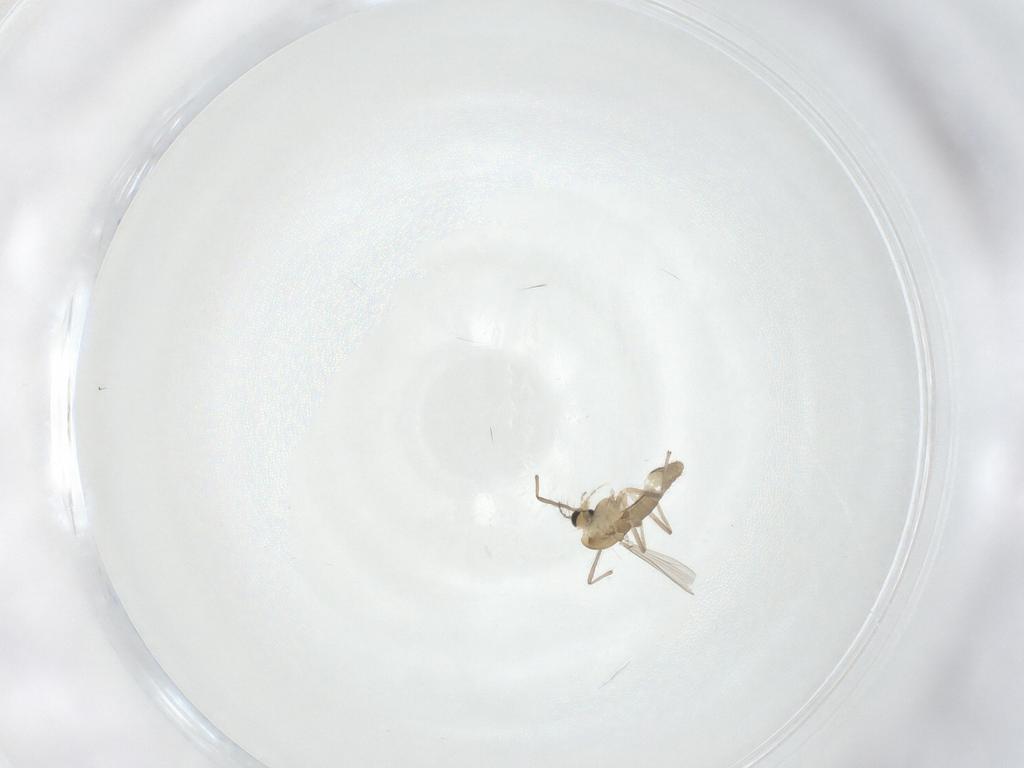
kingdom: Animalia
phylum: Arthropoda
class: Insecta
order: Diptera
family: Chironomidae
